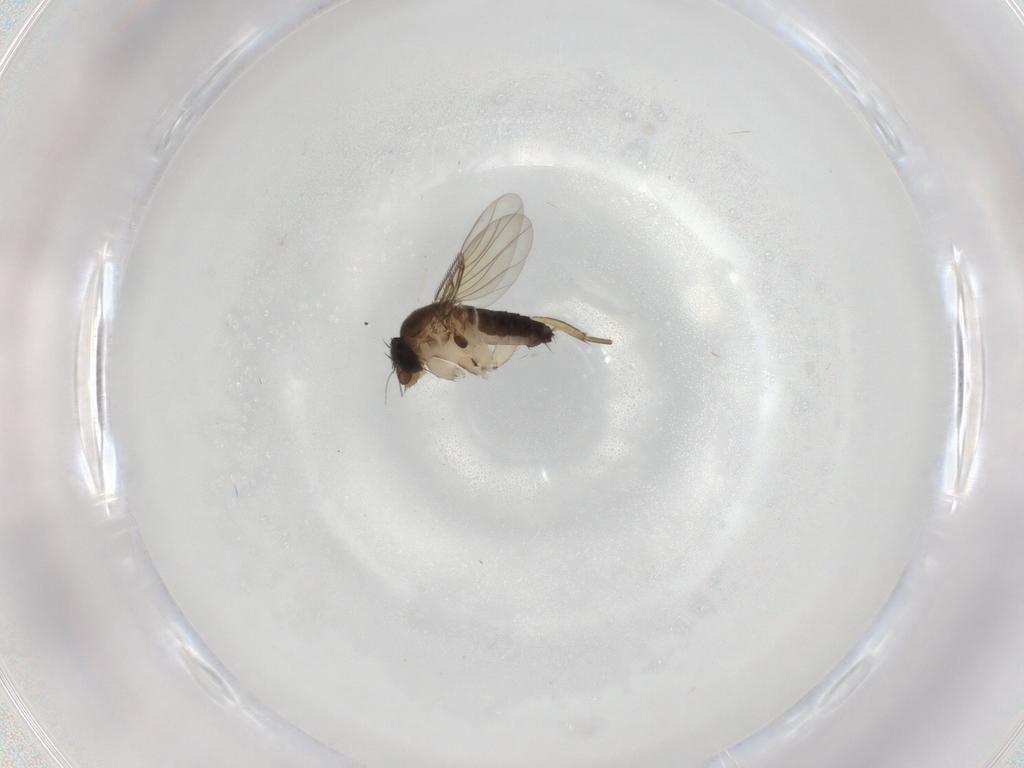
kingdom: Animalia
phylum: Arthropoda
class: Insecta
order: Diptera
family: Phoridae
